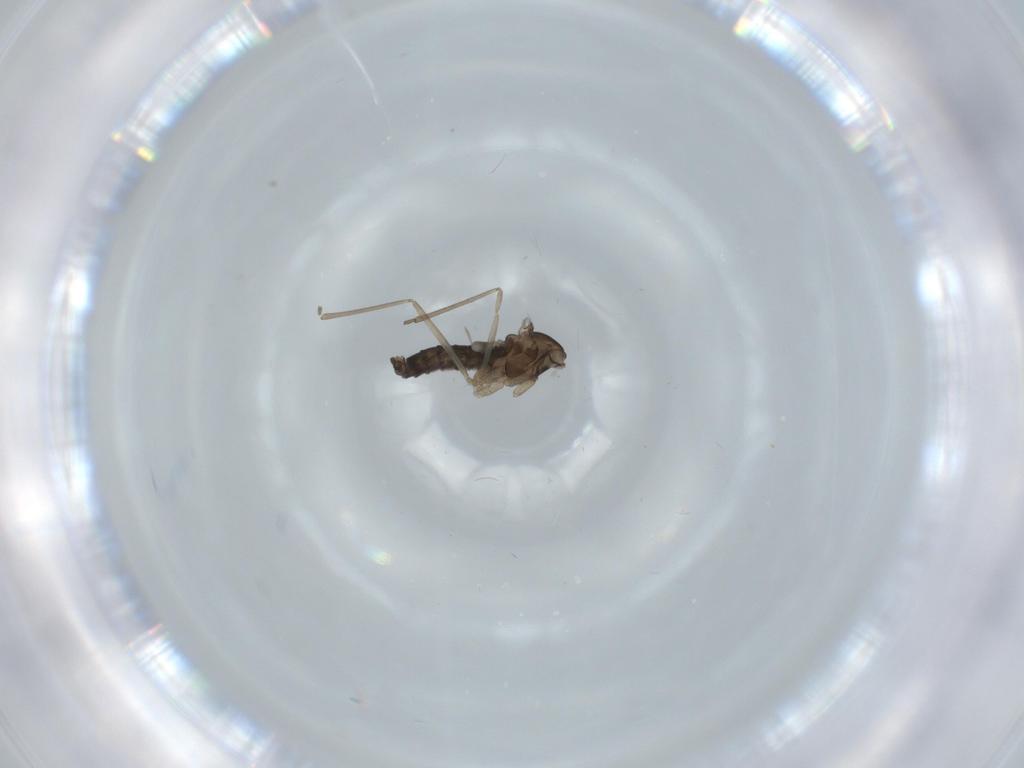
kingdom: Animalia
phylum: Arthropoda
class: Insecta
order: Diptera
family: Cecidomyiidae
